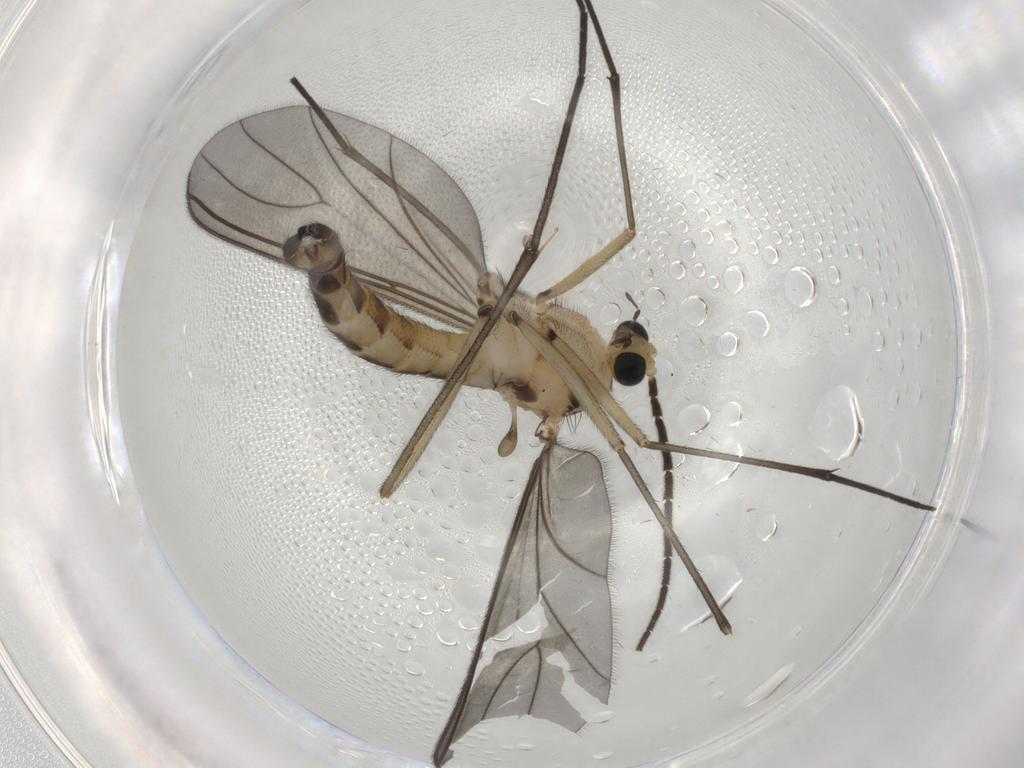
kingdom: Animalia
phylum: Arthropoda
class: Insecta
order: Diptera
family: Sciaridae
